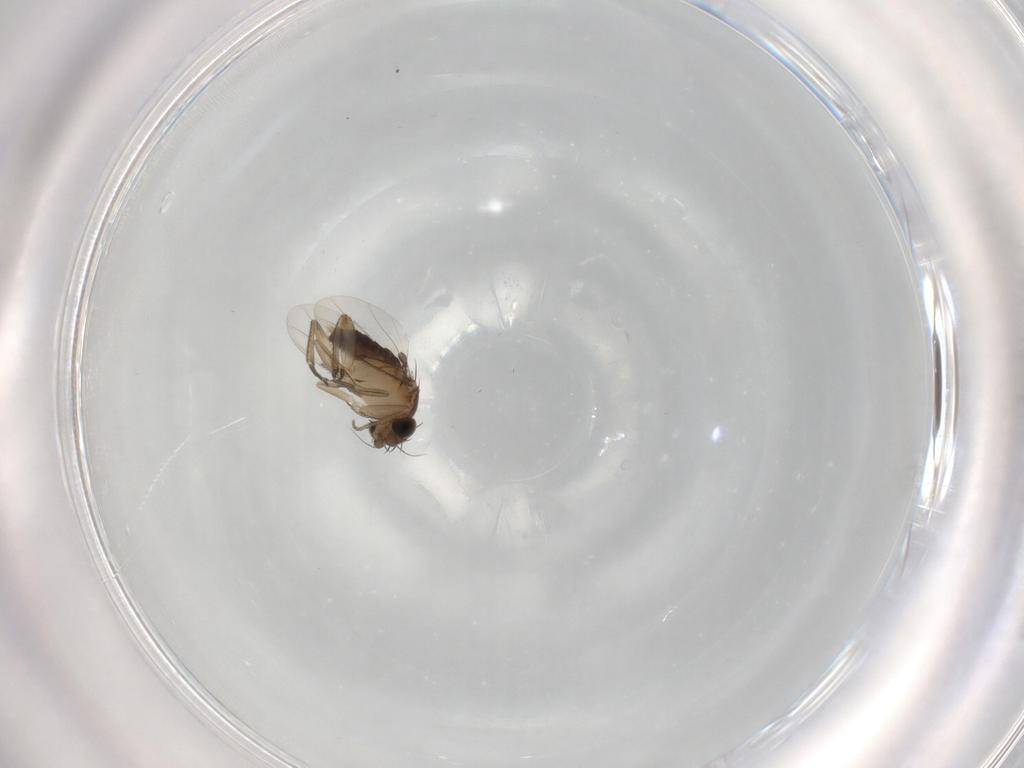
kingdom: Animalia
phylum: Arthropoda
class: Insecta
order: Diptera
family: Phoridae
